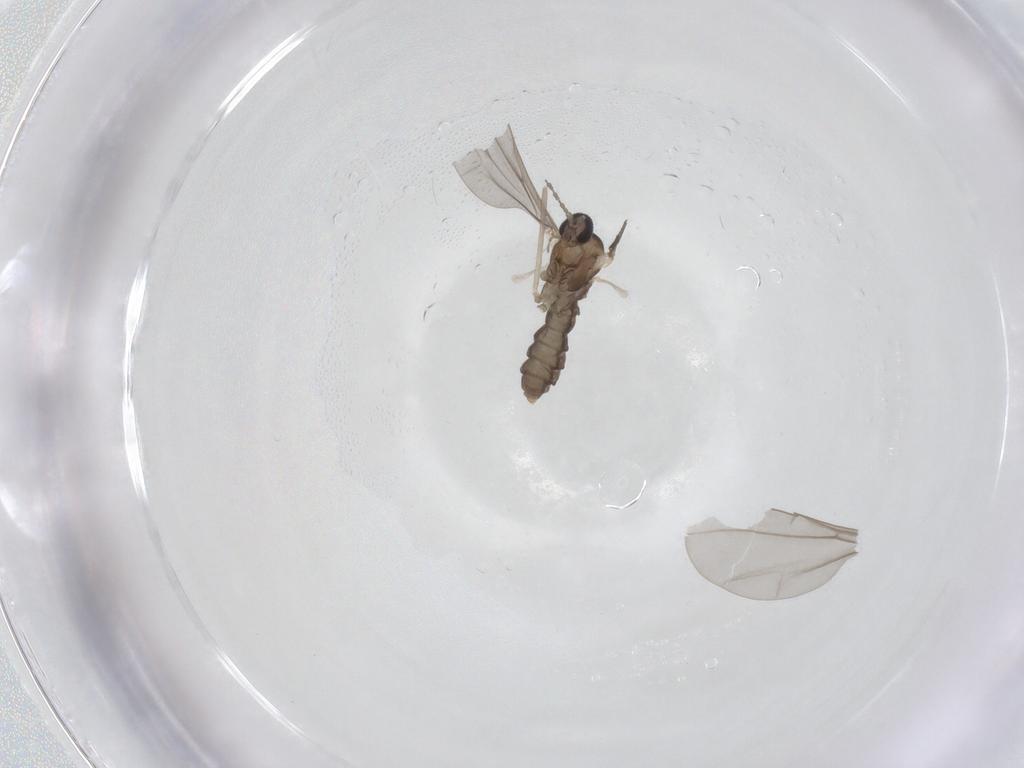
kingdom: Animalia
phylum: Arthropoda
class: Insecta
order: Diptera
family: Cecidomyiidae
